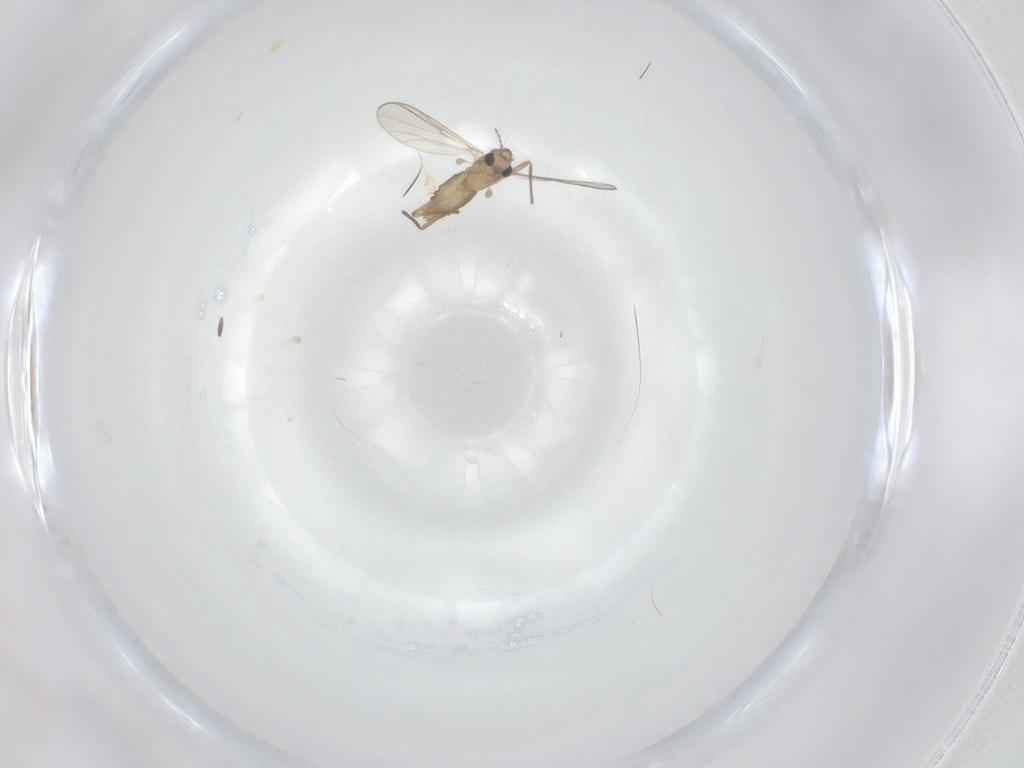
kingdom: Animalia
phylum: Arthropoda
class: Insecta
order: Diptera
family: Chironomidae
